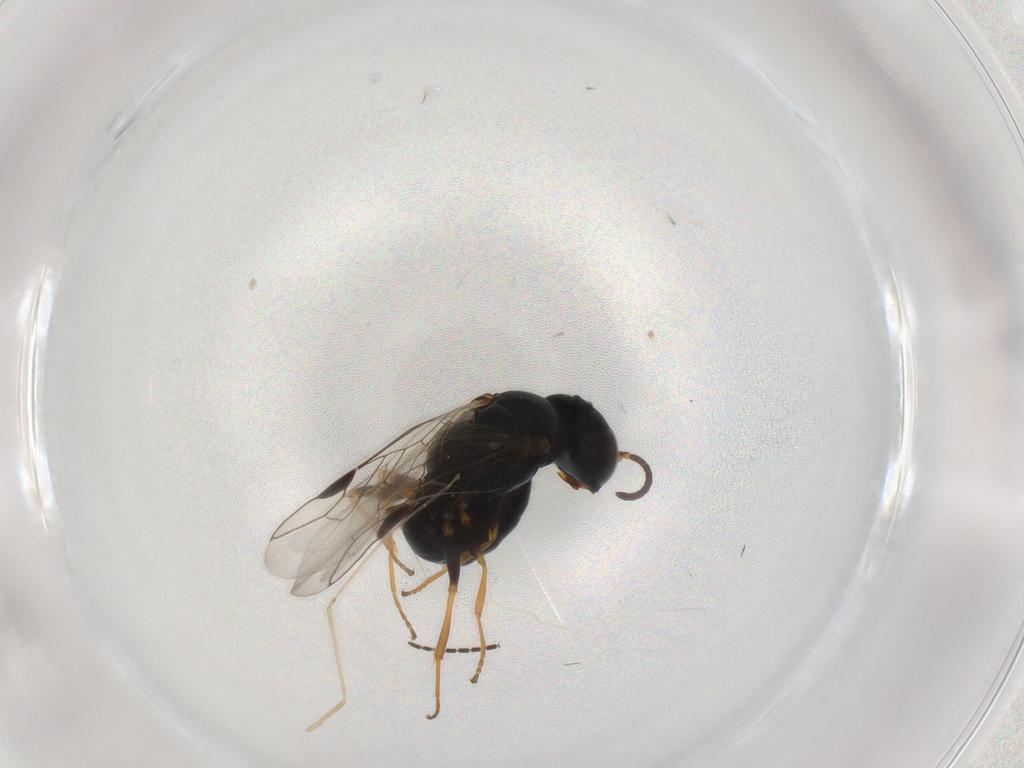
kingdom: Animalia
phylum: Arthropoda
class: Insecta
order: Hymenoptera
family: Pemphredonidae
